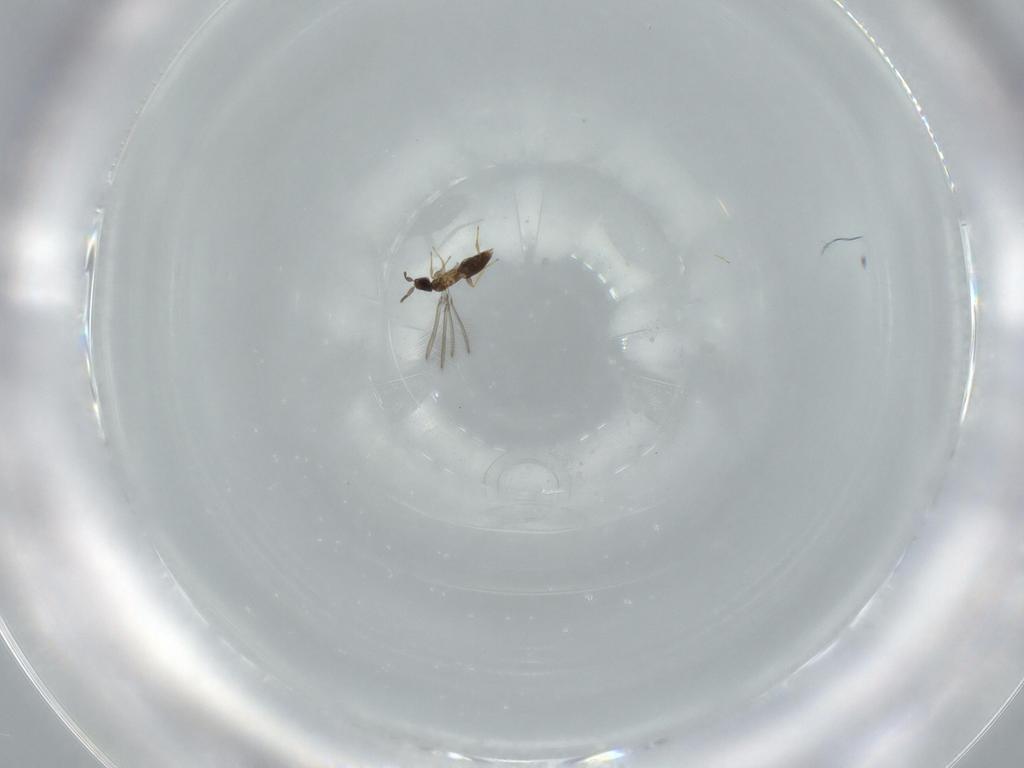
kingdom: Animalia
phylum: Arthropoda
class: Insecta
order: Hymenoptera
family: Mymaridae
